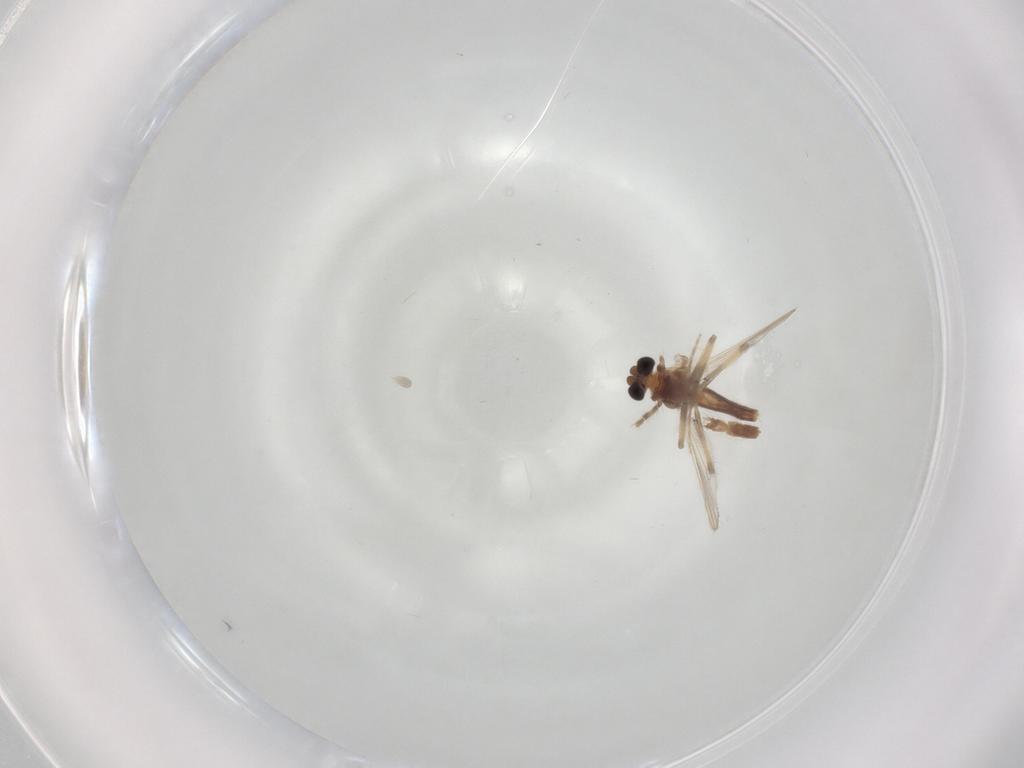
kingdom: Animalia
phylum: Arthropoda
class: Insecta
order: Diptera
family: Chironomidae
